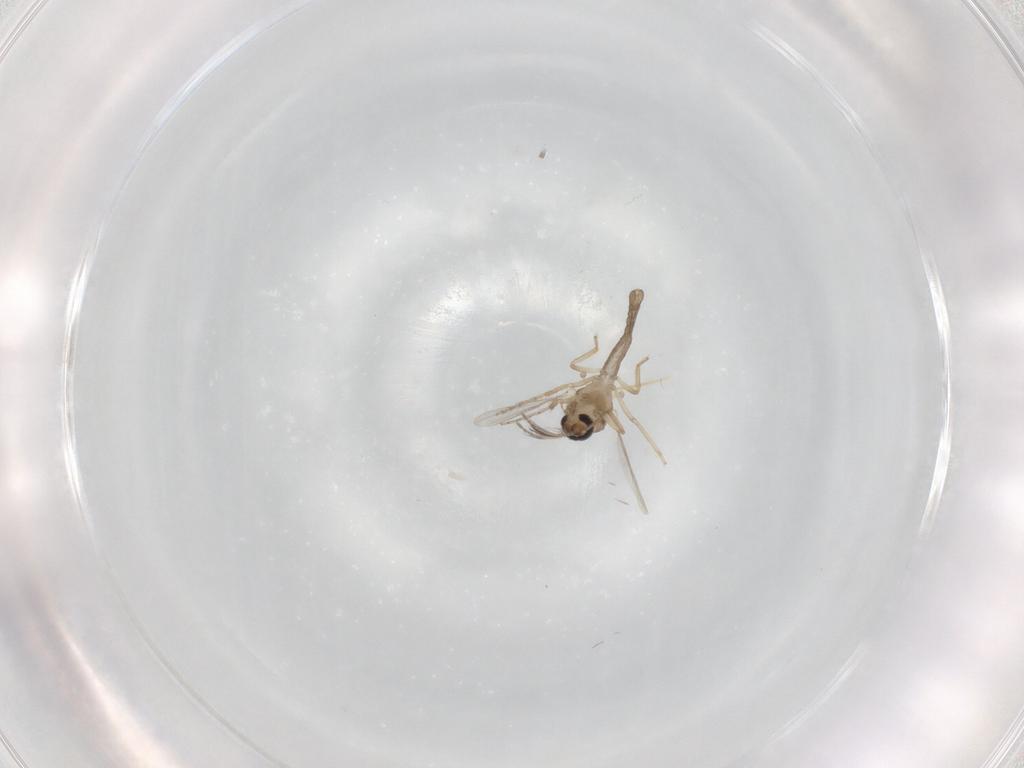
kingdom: Animalia
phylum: Arthropoda
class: Insecta
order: Diptera
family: Ceratopogonidae
